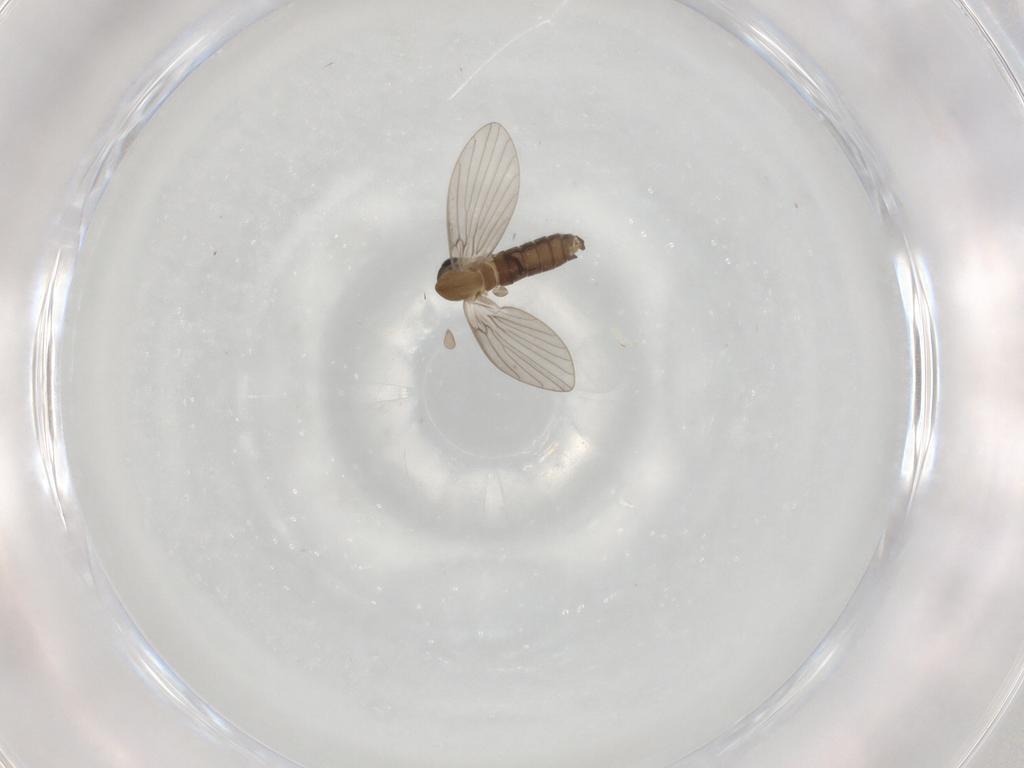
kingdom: Animalia
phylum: Arthropoda
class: Insecta
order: Diptera
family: Psychodidae
